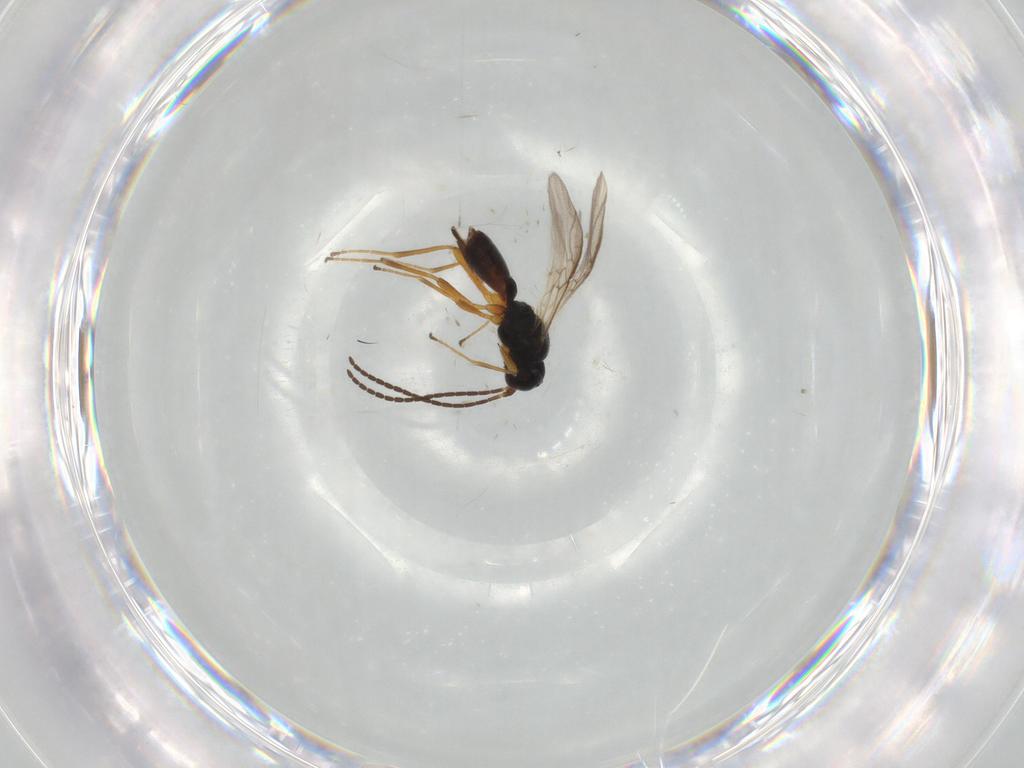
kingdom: Animalia
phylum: Arthropoda
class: Insecta
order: Hymenoptera
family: Braconidae
